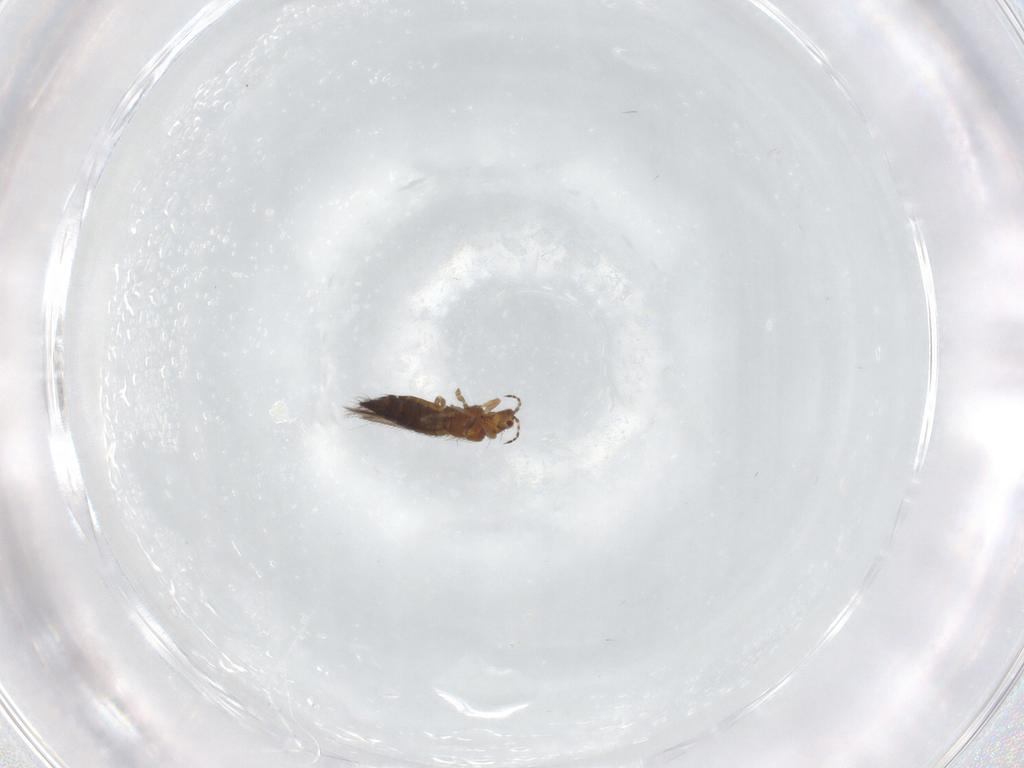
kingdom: Animalia
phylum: Arthropoda
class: Insecta
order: Thysanoptera
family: Thripidae
